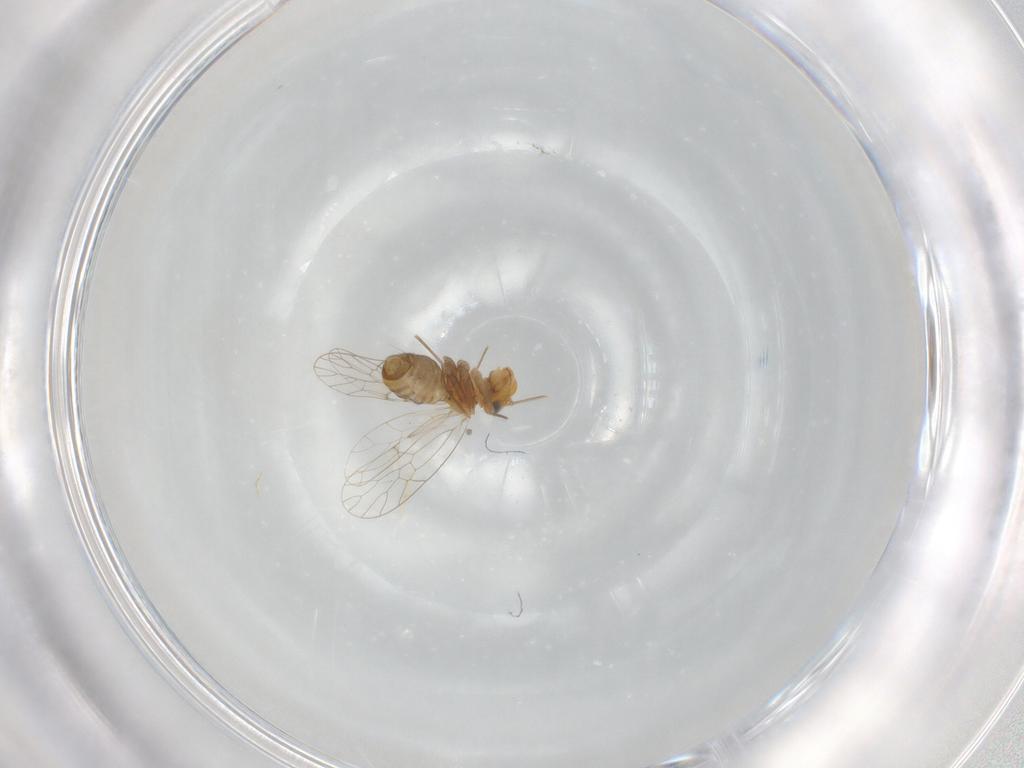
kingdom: Animalia
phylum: Arthropoda
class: Insecta
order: Psocodea
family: Prionoglarididae
